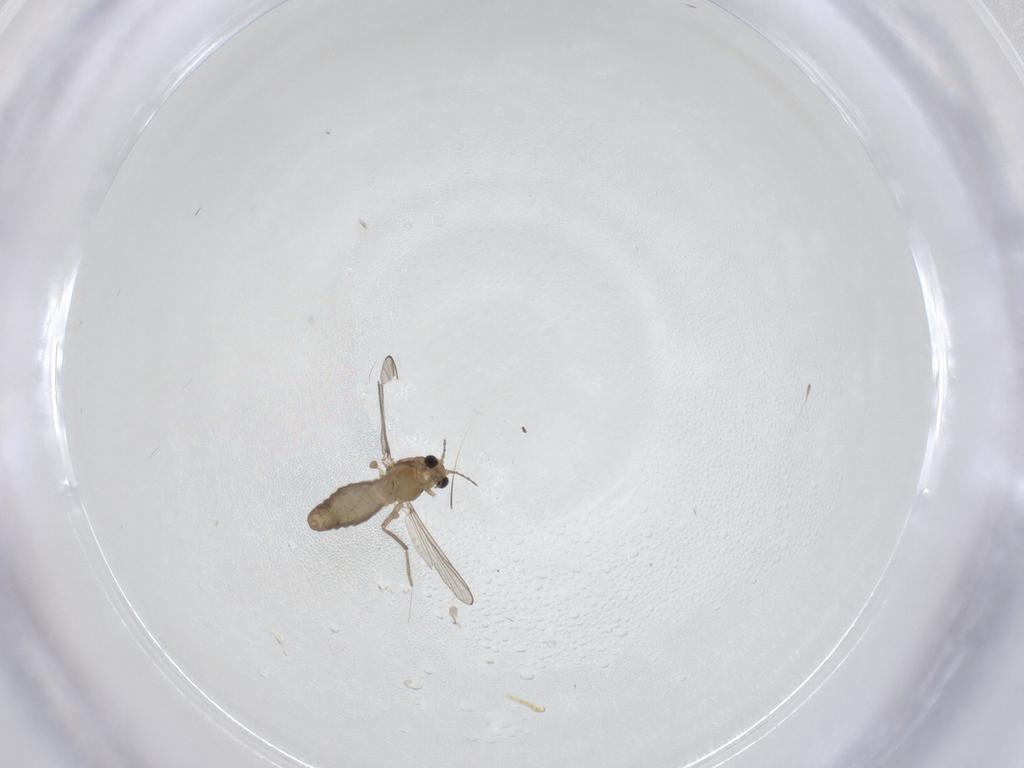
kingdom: Animalia
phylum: Arthropoda
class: Insecta
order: Diptera
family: Chironomidae
